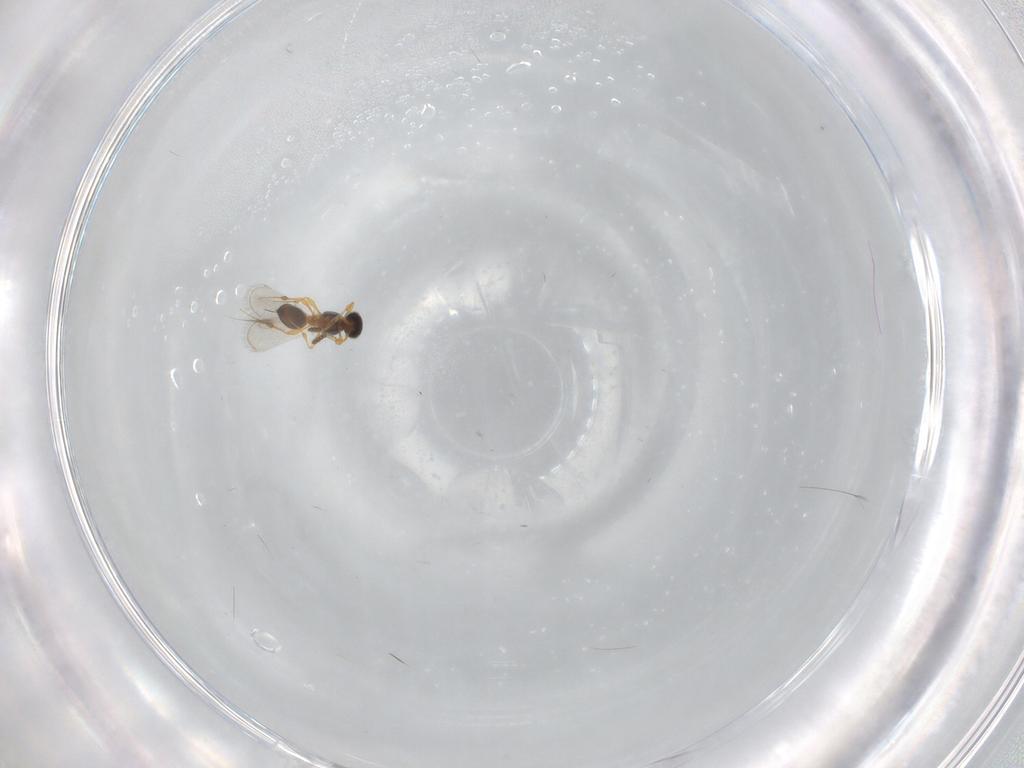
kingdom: Animalia
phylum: Arthropoda
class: Insecta
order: Hymenoptera
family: Platygastridae
